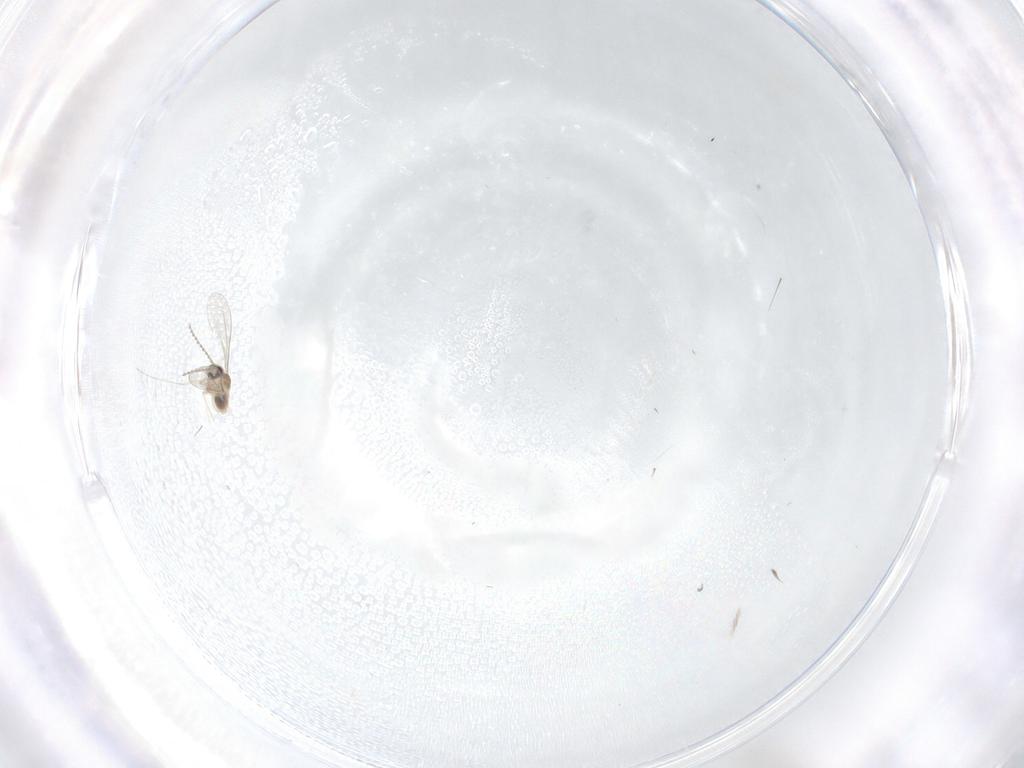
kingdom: Animalia
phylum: Arthropoda
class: Insecta
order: Diptera
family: Cecidomyiidae
